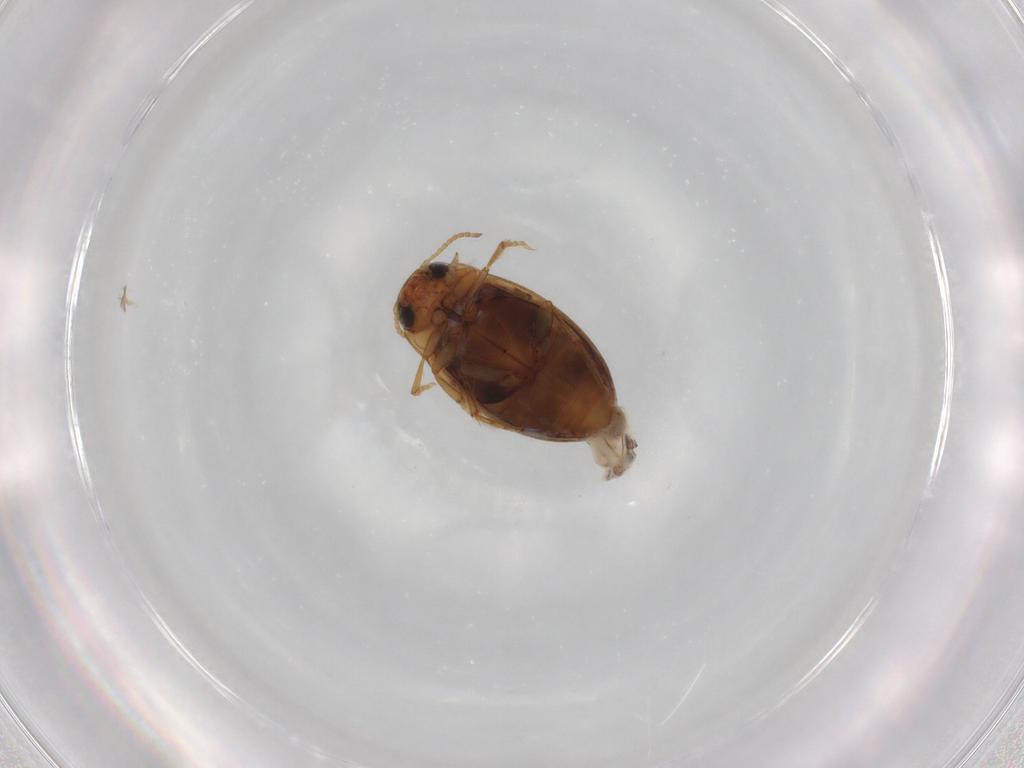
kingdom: Animalia
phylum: Arthropoda
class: Insecta
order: Coleoptera
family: Dytiscidae
